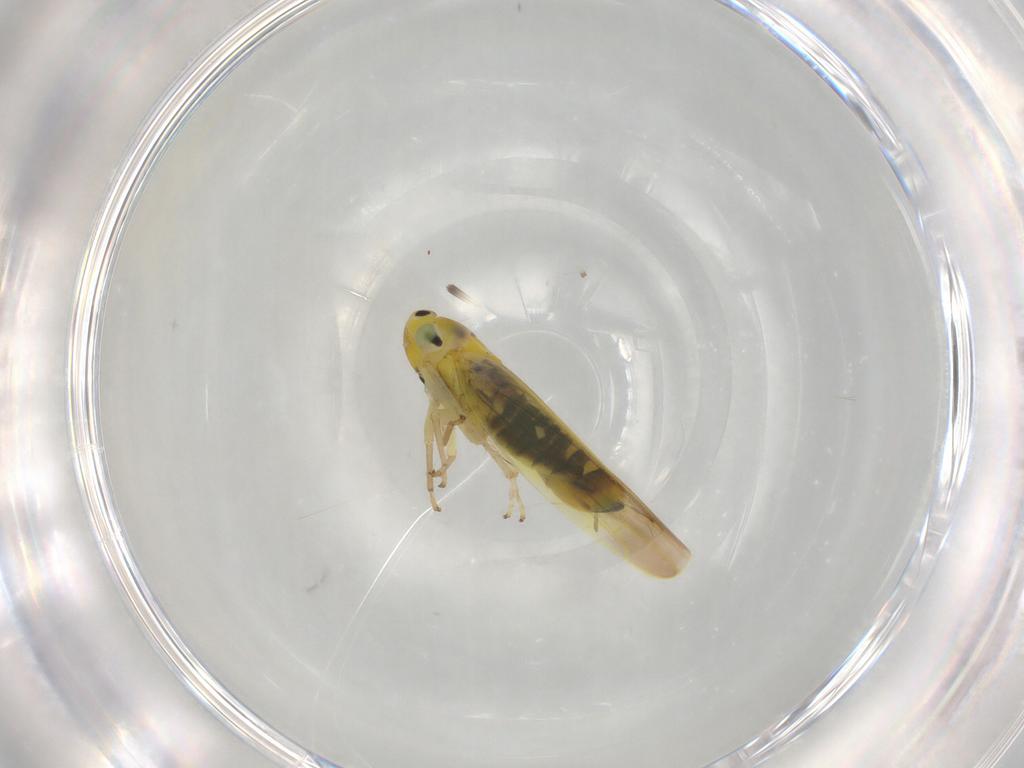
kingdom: Animalia
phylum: Arthropoda
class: Insecta
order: Hemiptera
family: Cicadellidae
